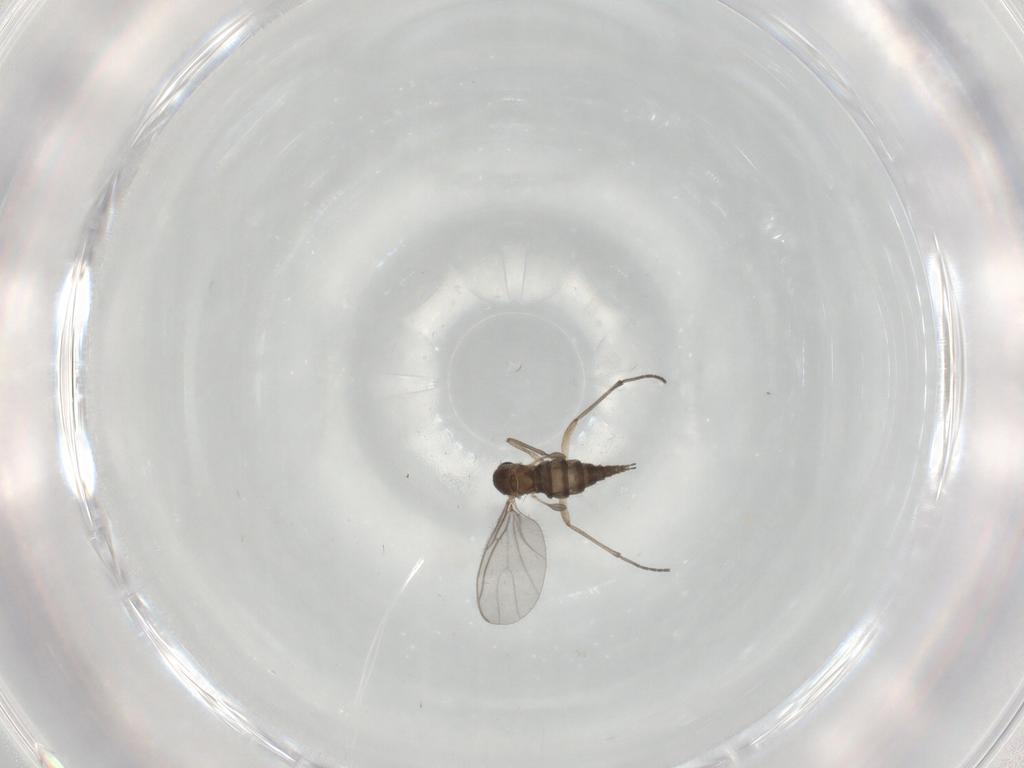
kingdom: Animalia
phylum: Arthropoda
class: Insecta
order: Diptera
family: Sciaridae
